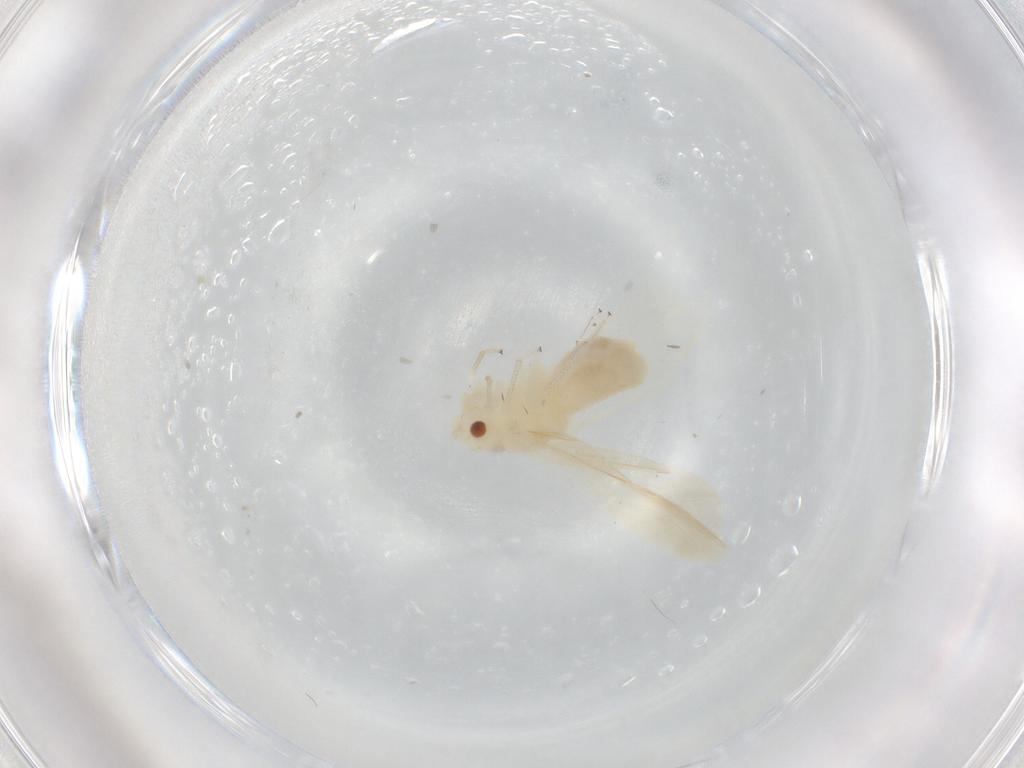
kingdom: Animalia
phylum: Arthropoda
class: Insecta
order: Psocodea
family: Caeciliusidae
